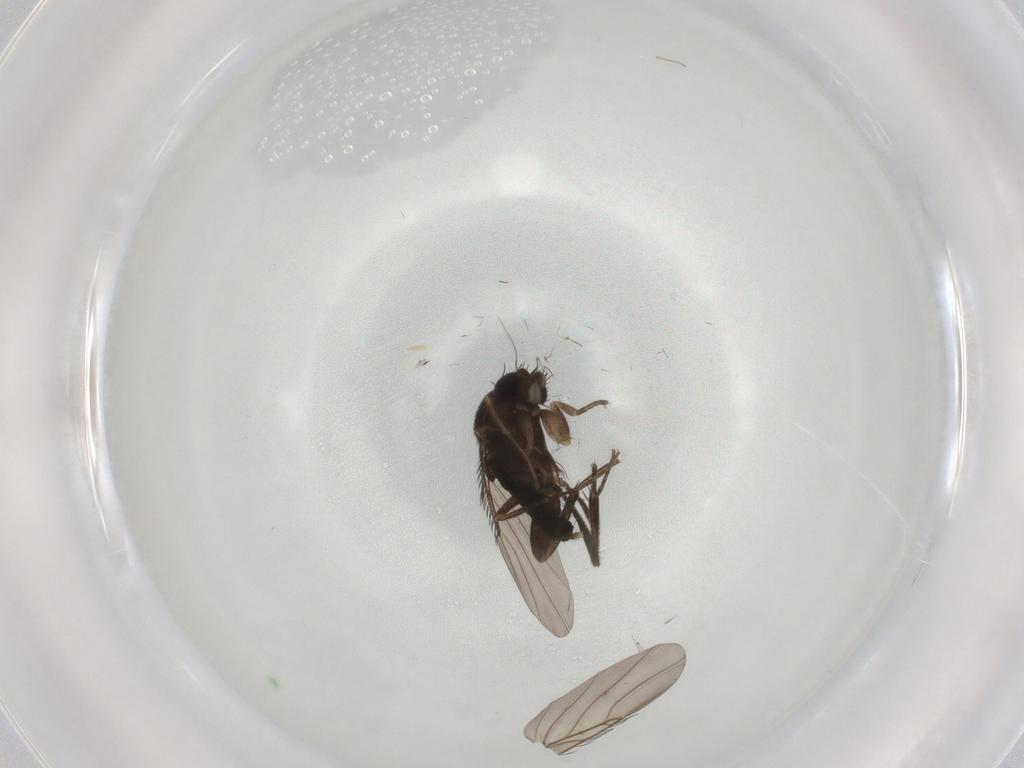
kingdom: Animalia
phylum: Arthropoda
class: Insecta
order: Diptera
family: Phoridae
